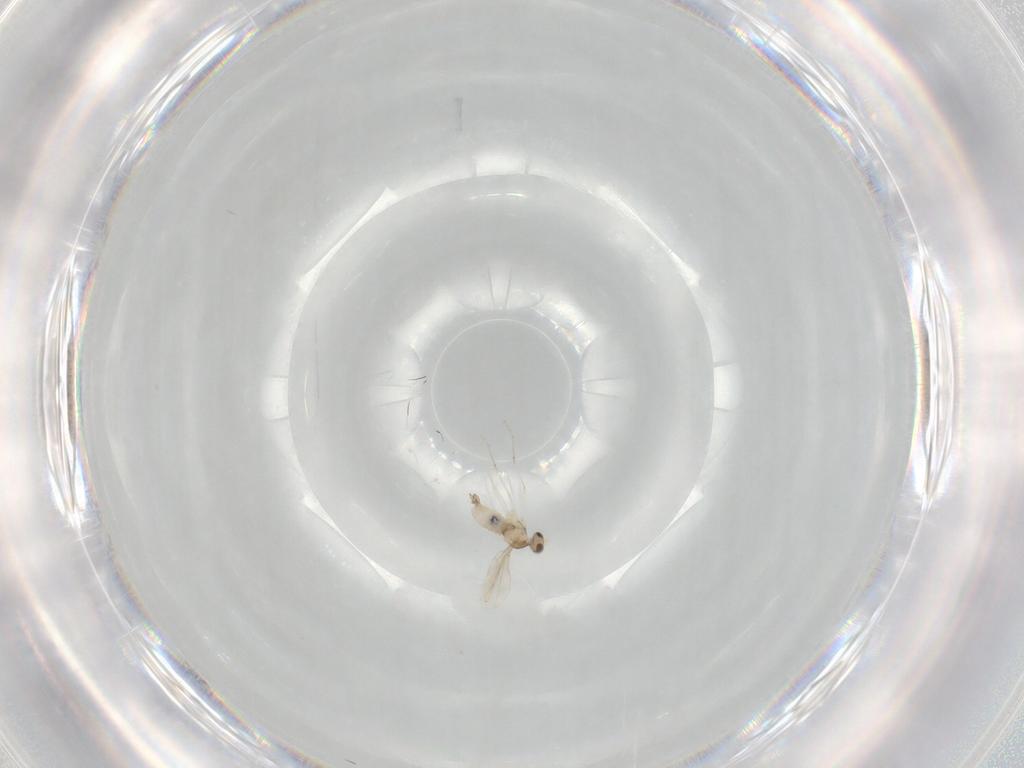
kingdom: Animalia
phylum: Arthropoda
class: Insecta
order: Diptera
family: Cecidomyiidae
